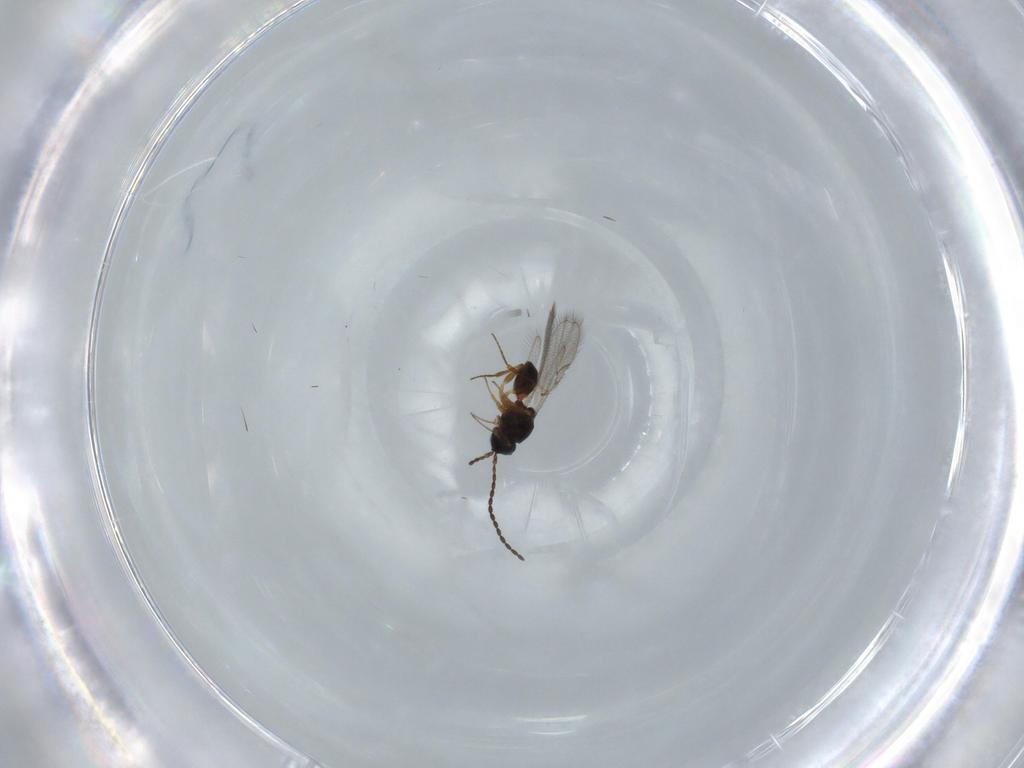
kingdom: Animalia
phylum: Arthropoda
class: Insecta
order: Hymenoptera
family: Figitidae
